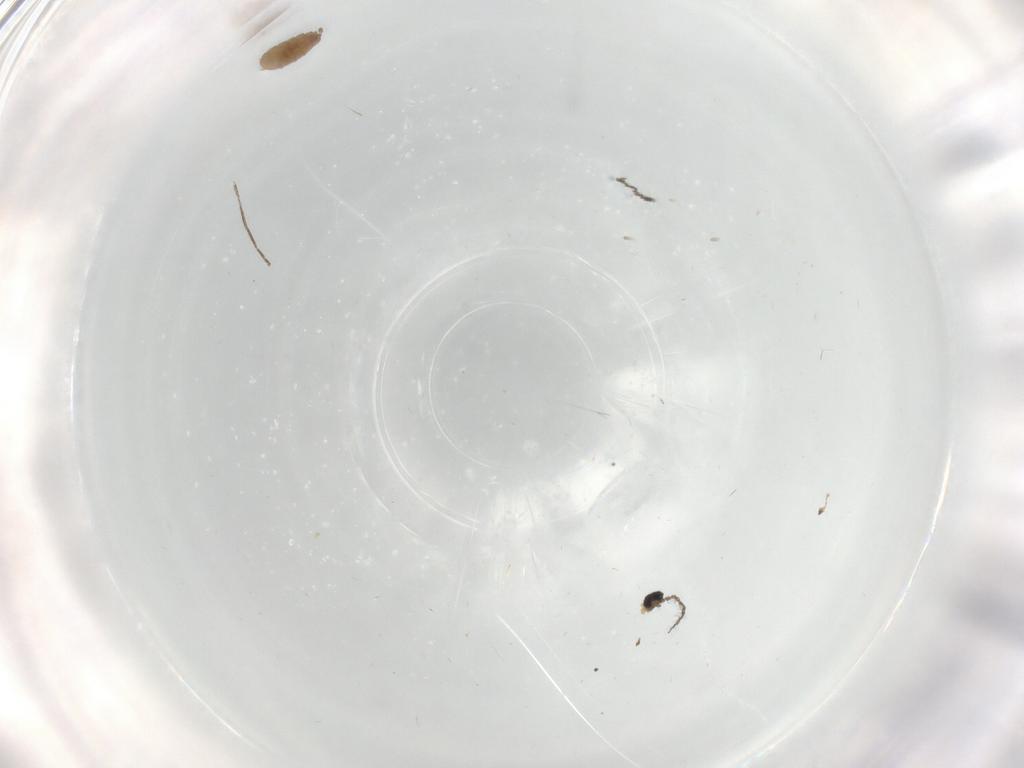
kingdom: Animalia
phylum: Arthropoda
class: Insecta
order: Diptera
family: Cecidomyiidae
